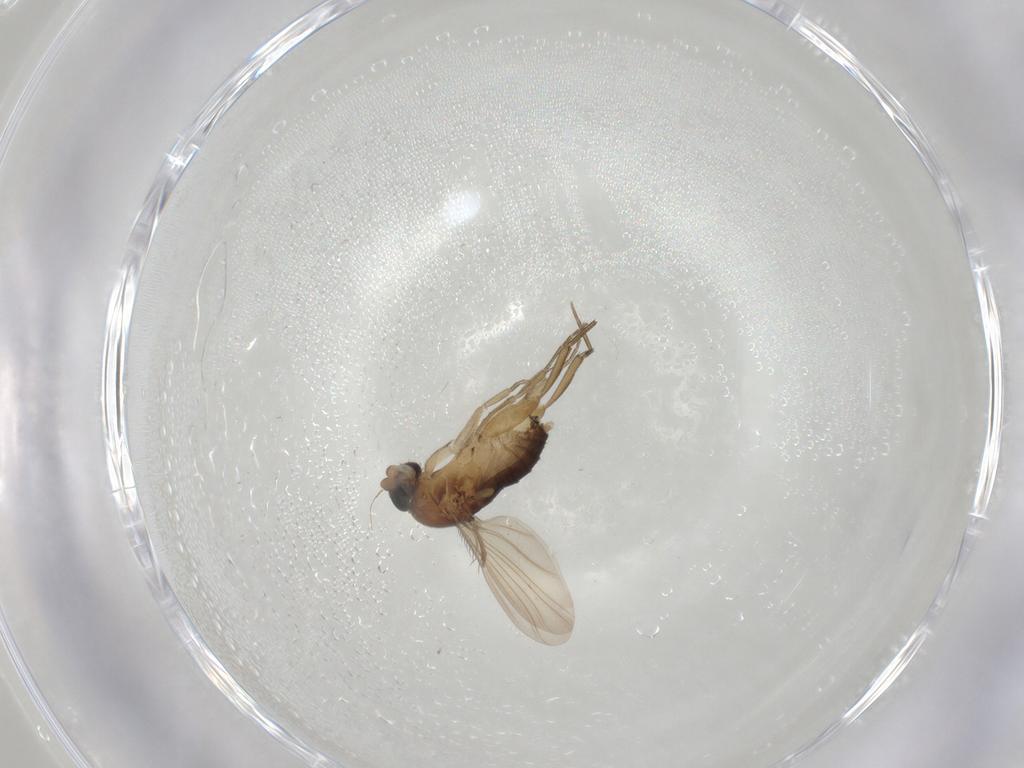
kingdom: Animalia
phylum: Arthropoda
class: Insecta
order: Diptera
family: Phoridae
